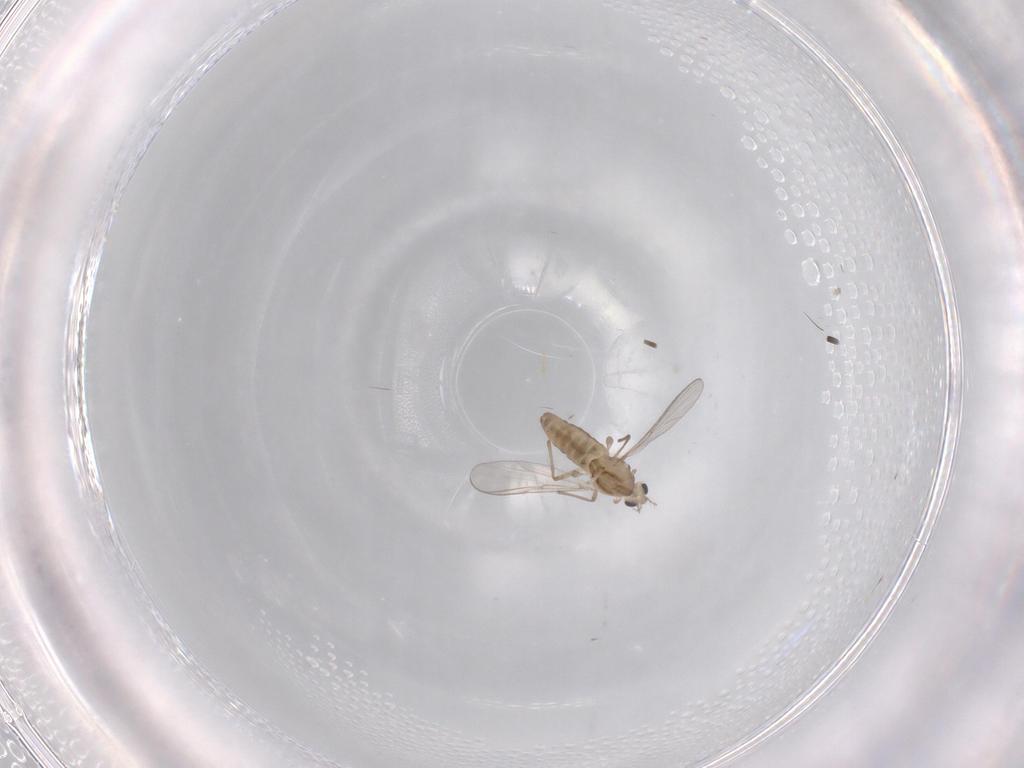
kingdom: Animalia
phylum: Arthropoda
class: Insecta
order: Diptera
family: Chironomidae
